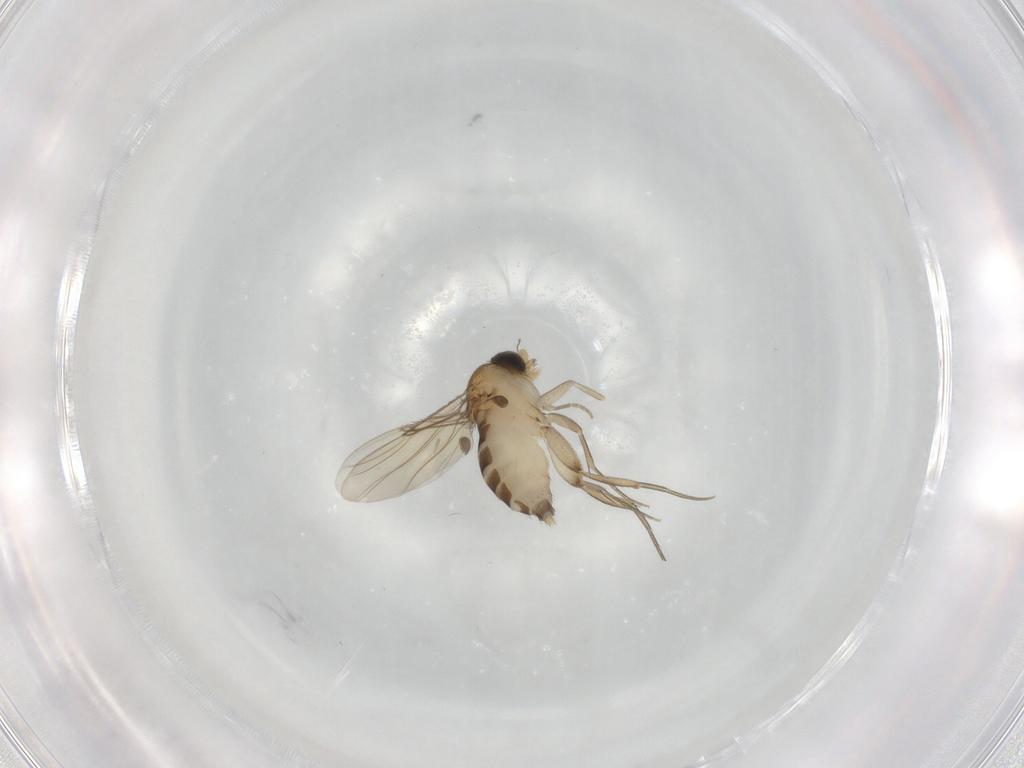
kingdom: Animalia
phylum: Arthropoda
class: Insecta
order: Diptera
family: Phoridae
